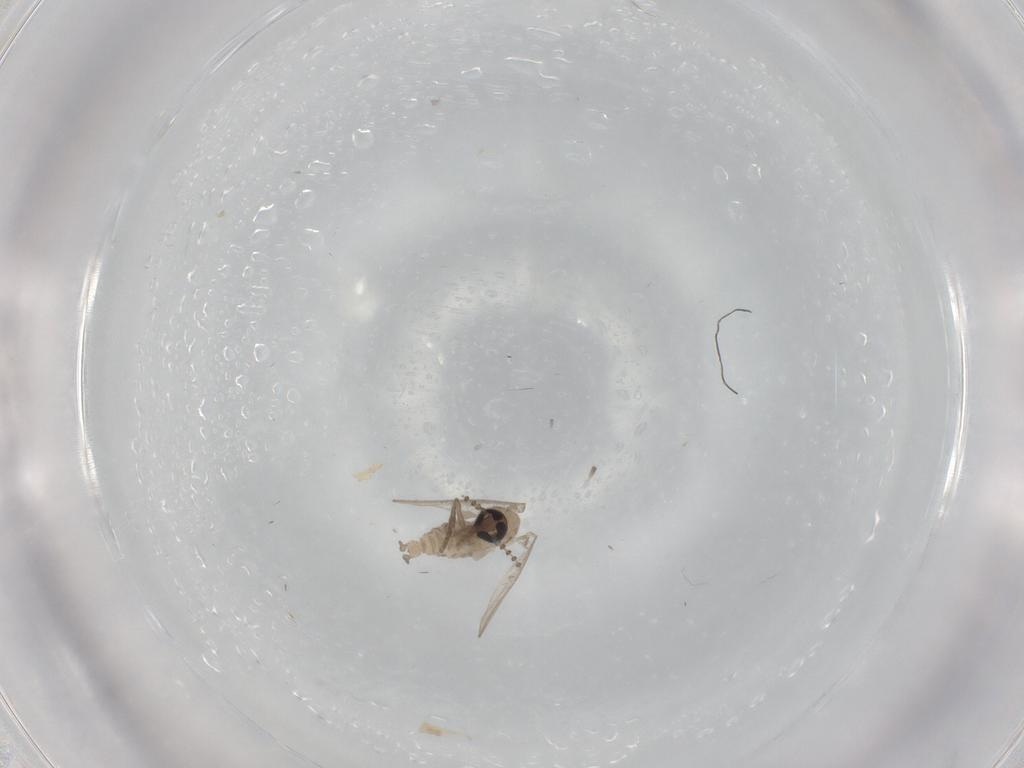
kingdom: Animalia
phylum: Arthropoda
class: Insecta
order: Diptera
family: Psychodidae
